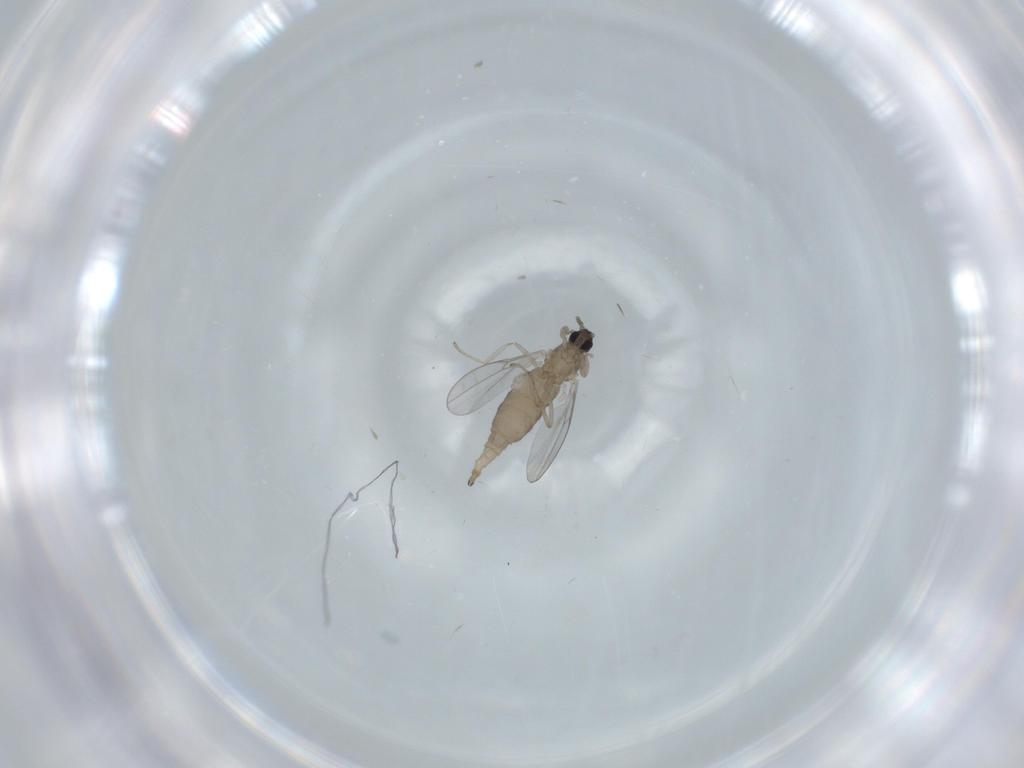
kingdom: Animalia
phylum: Arthropoda
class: Insecta
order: Diptera
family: Cecidomyiidae
